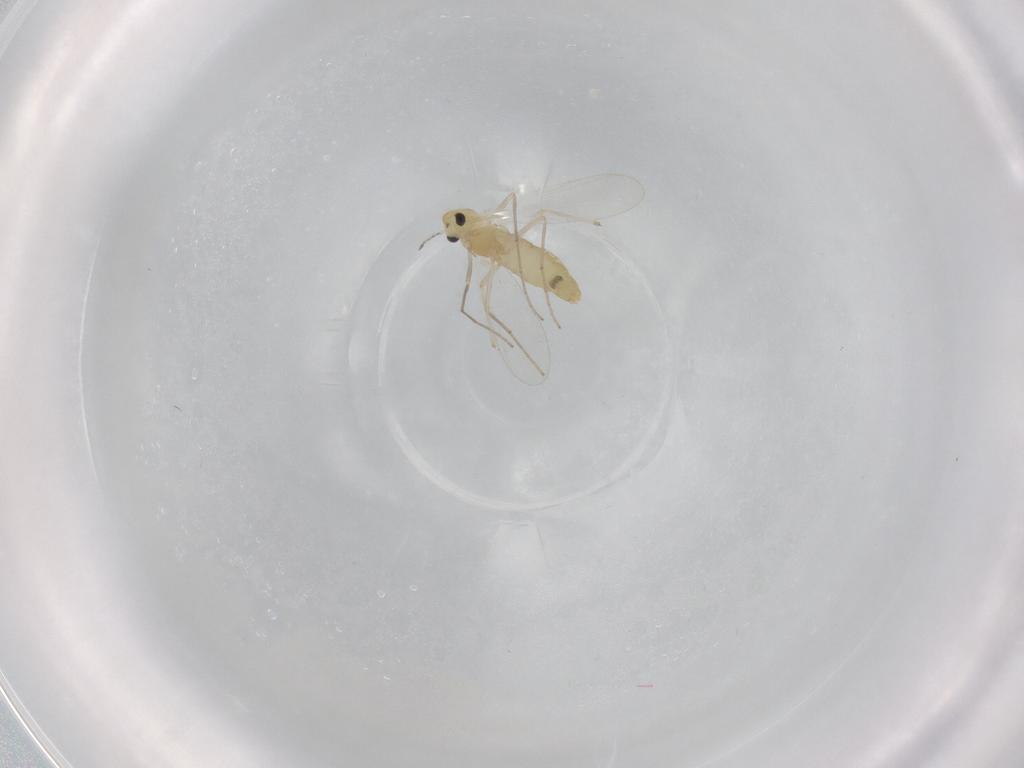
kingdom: Animalia
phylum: Arthropoda
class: Insecta
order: Diptera
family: Chironomidae
